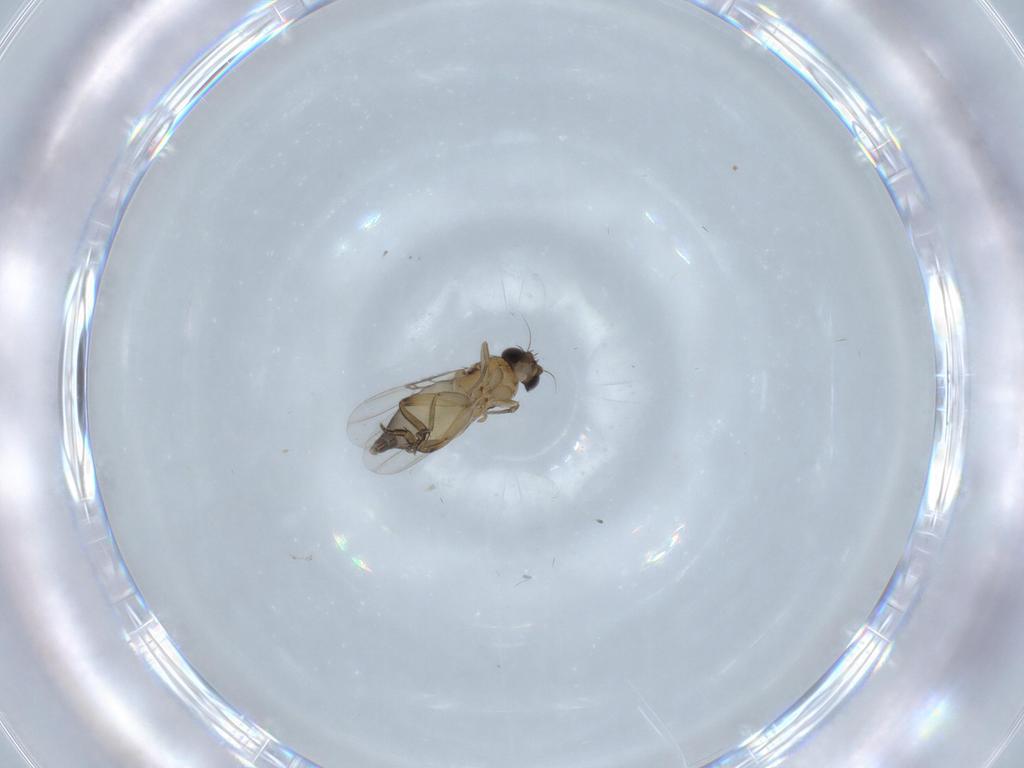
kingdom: Animalia
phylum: Arthropoda
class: Insecta
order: Diptera
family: Phoridae
